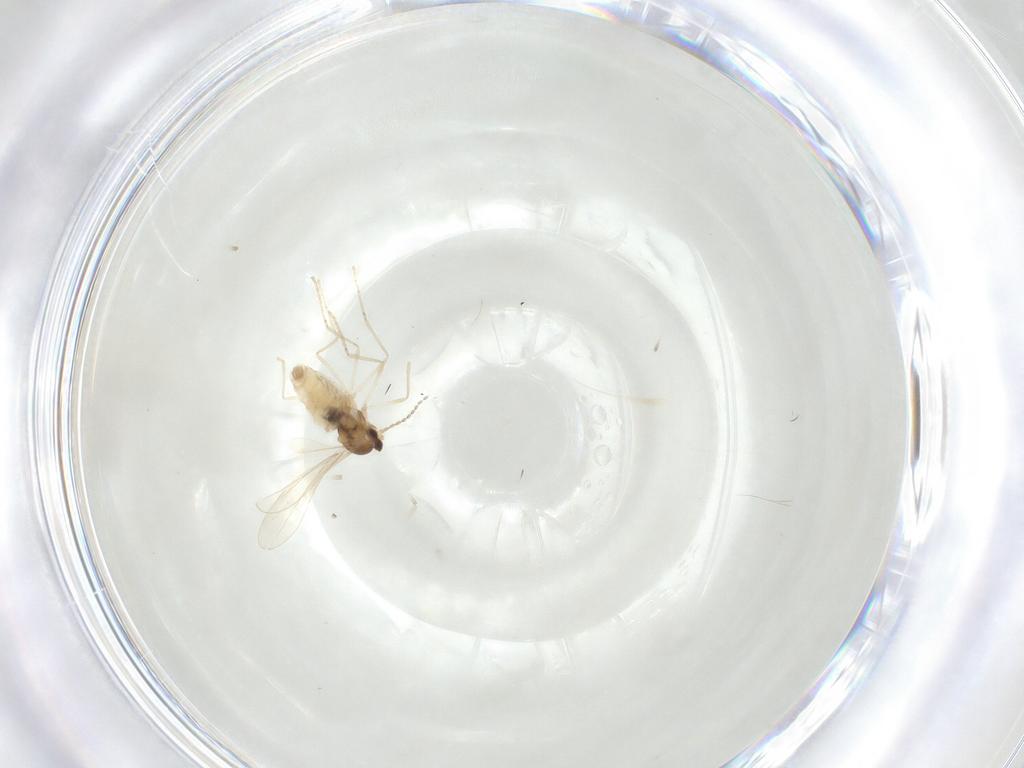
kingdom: Animalia
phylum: Arthropoda
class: Insecta
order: Diptera
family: Cecidomyiidae
